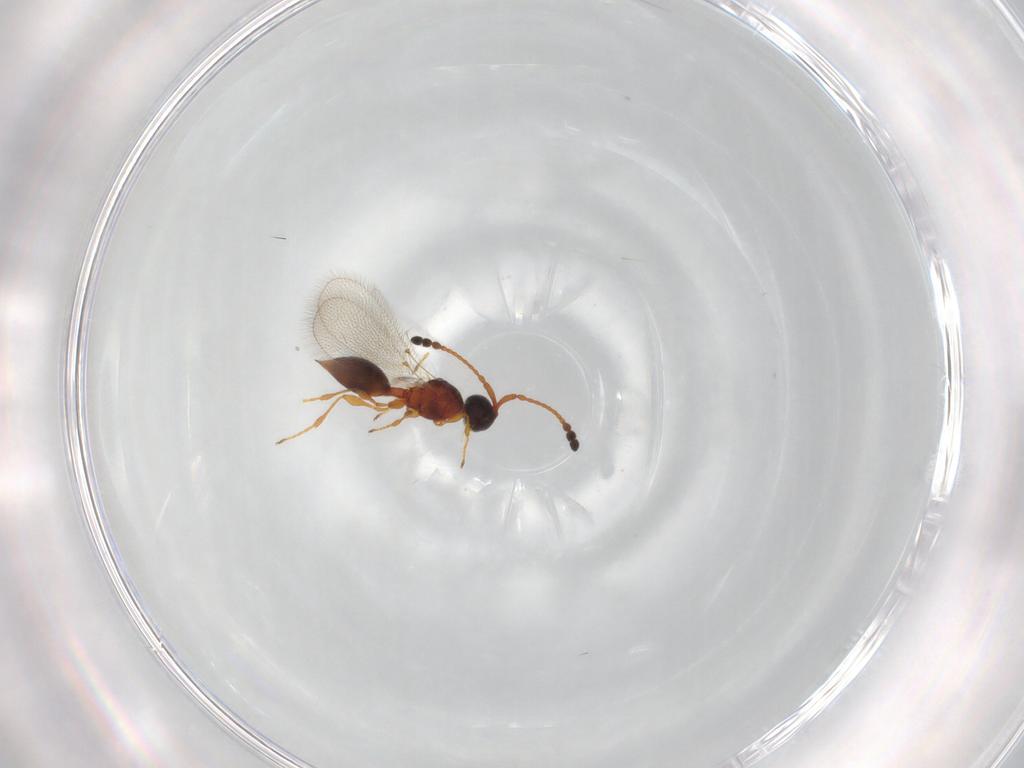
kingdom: Animalia
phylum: Arthropoda
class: Insecta
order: Hymenoptera
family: Diapriidae
